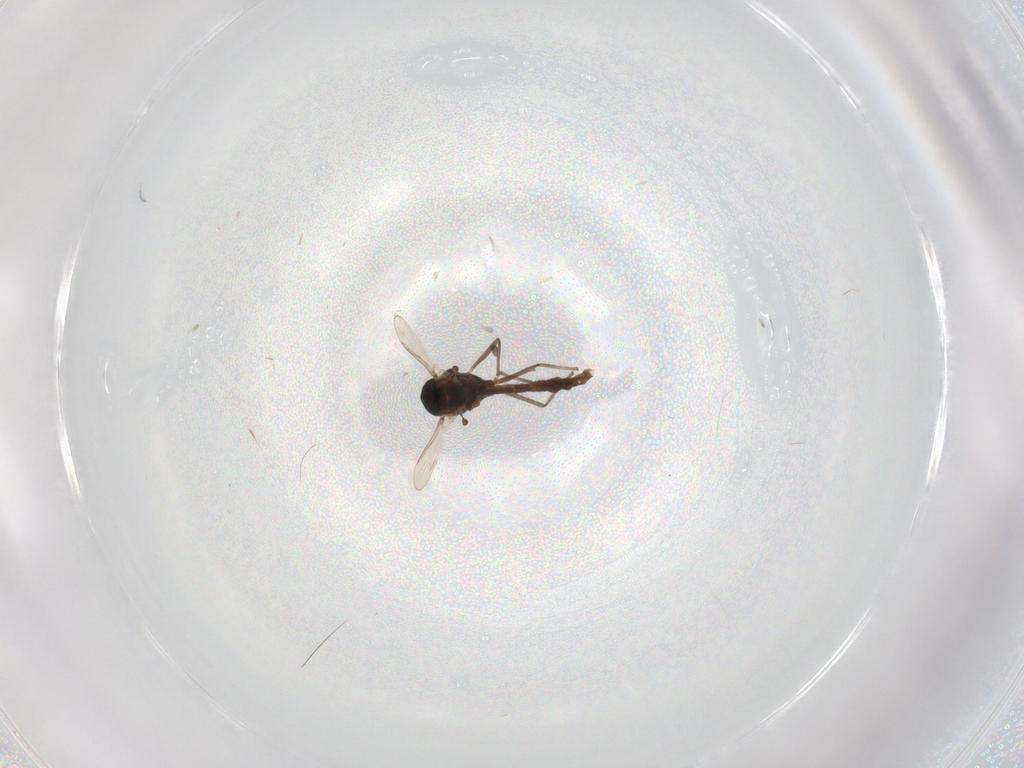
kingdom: Animalia
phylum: Arthropoda
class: Insecta
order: Diptera
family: Chironomidae
